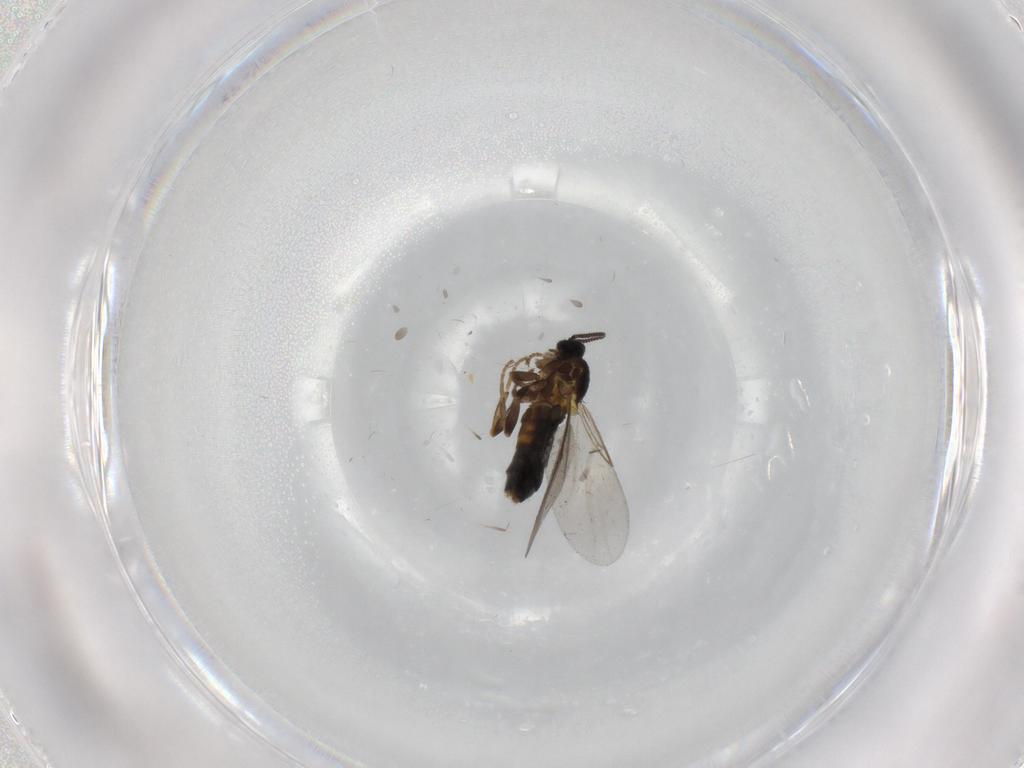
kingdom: Animalia
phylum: Arthropoda
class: Insecta
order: Diptera
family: Scatopsidae
